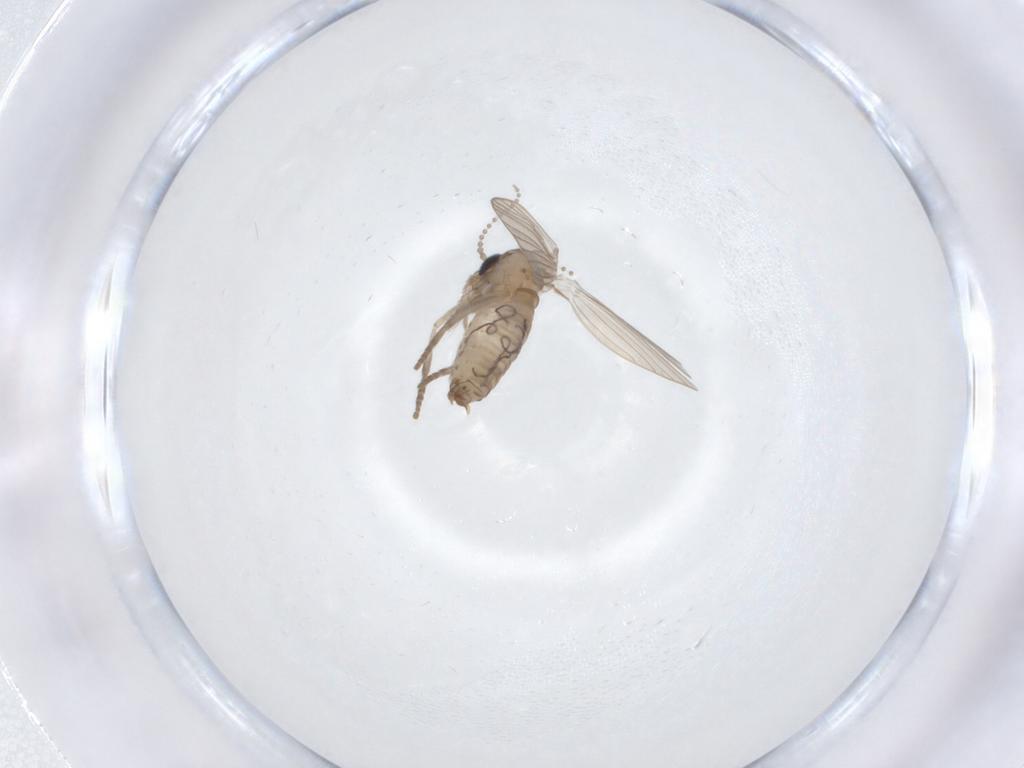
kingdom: Animalia
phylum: Arthropoda
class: Insecta
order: Diptera
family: Psychodidae
